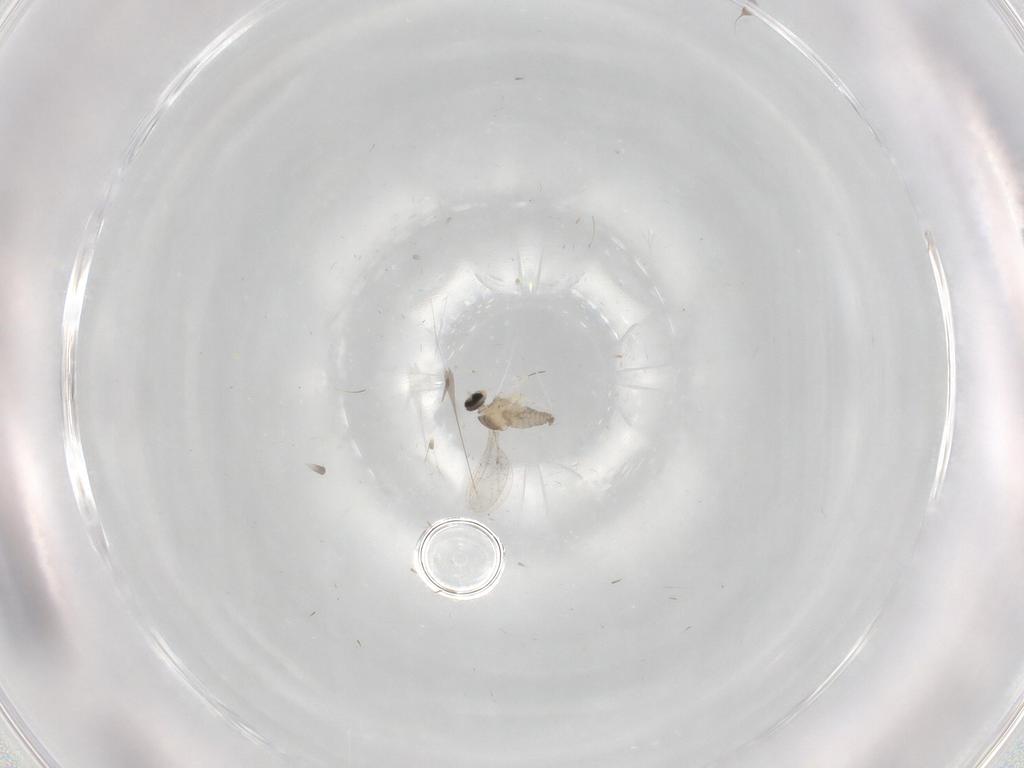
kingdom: Animalia
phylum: Arthropoda
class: Insecta
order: Diptera
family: Cecidomyiidae
